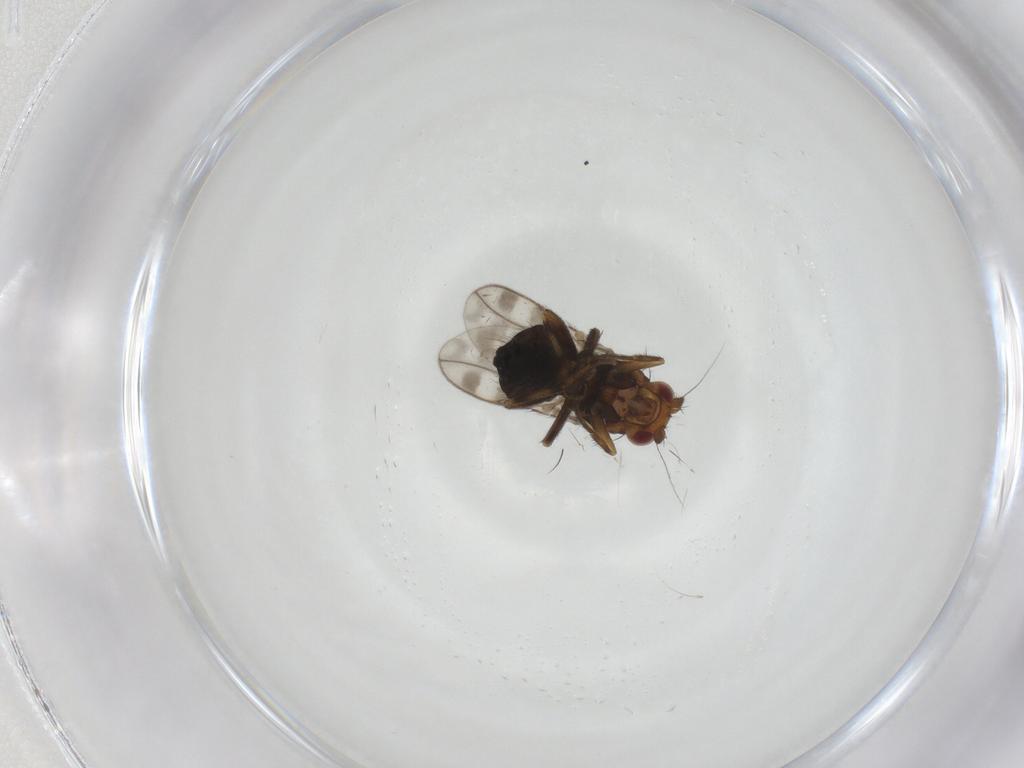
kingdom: Animalia
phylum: Arthropoda
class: Insecta
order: Diptera
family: Sphaeroceridae
